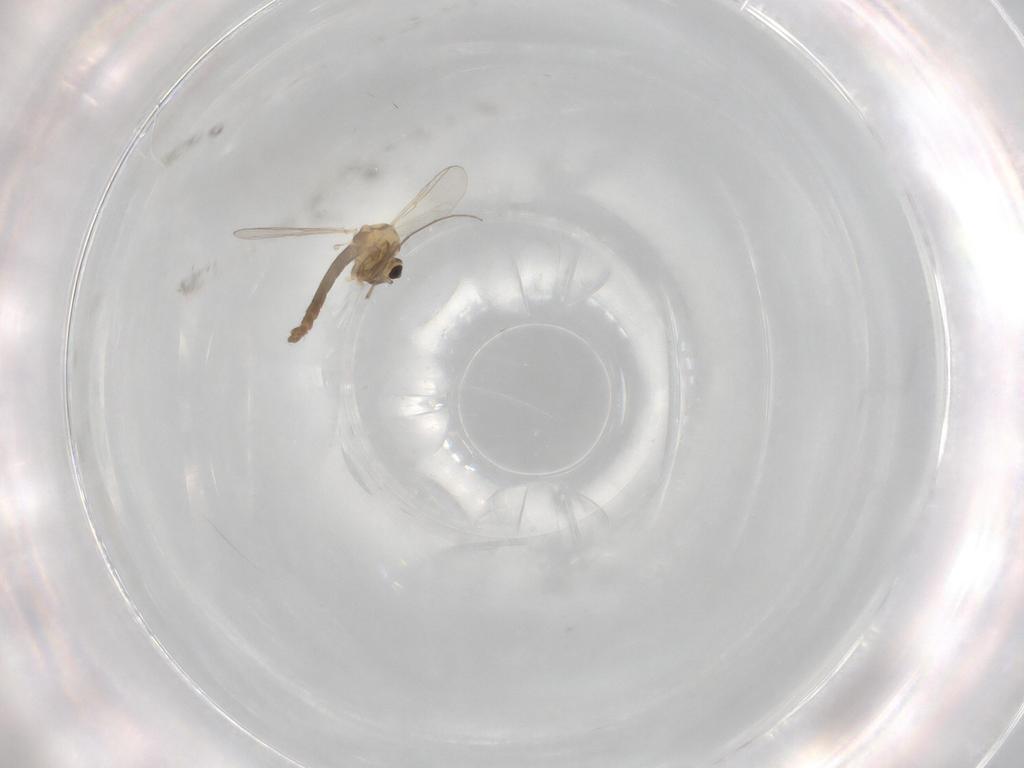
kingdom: Animalia
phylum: Arthropoda
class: Insecta
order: Diptera
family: Chironomidae
